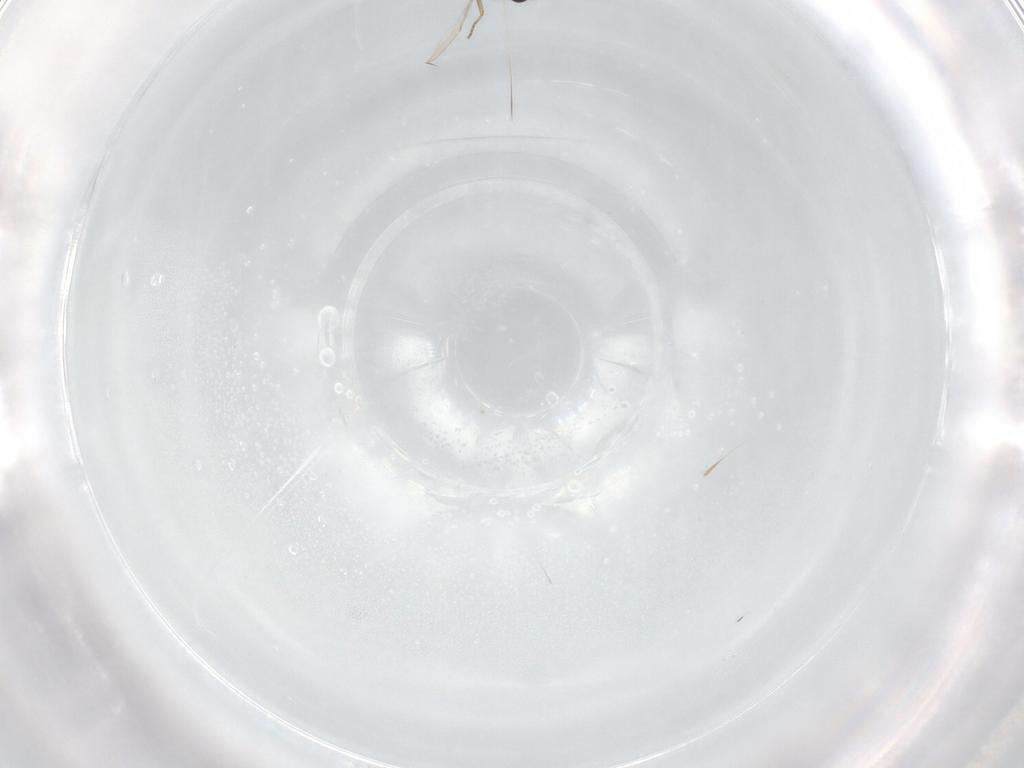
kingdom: Animalia
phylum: Arthropoda
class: Insecta
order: Diptera
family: Ceratopogonidae
